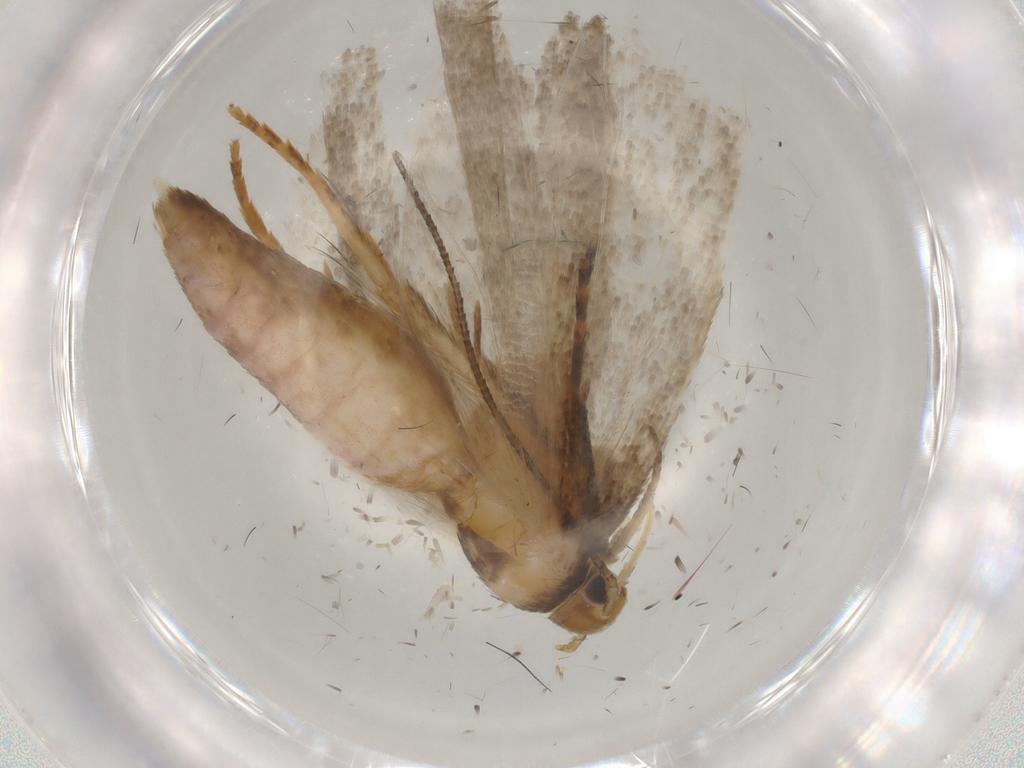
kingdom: Animalia
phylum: Arthropoda
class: Insecta
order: Lepidoptera
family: Gelechiidae
